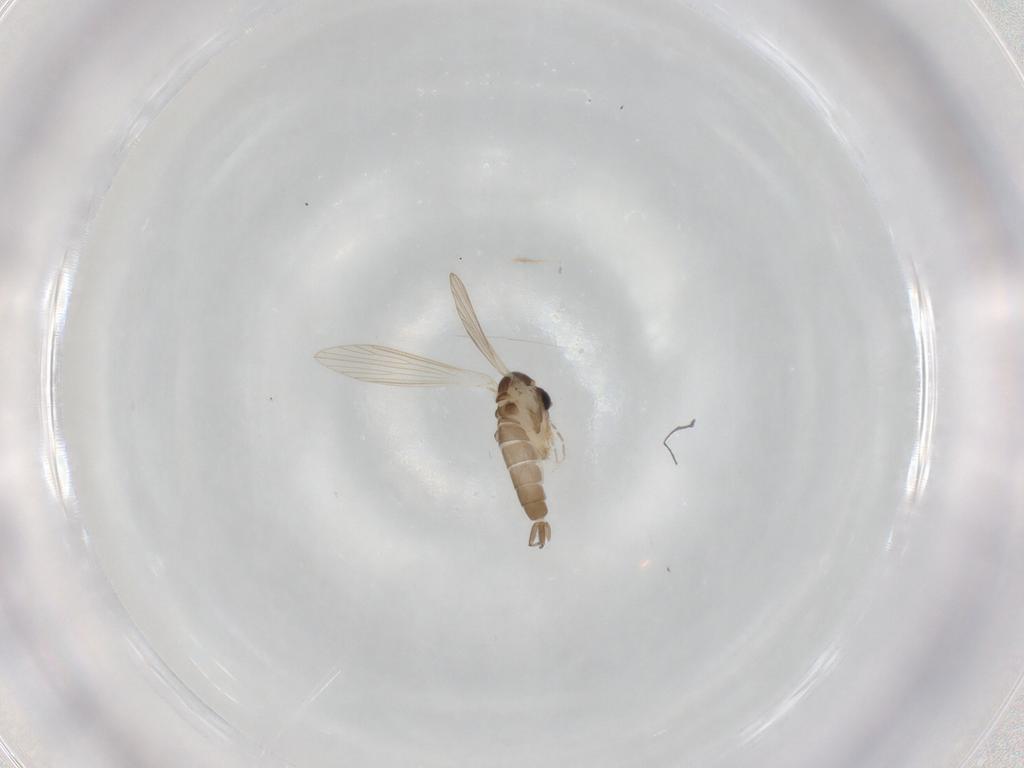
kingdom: Animalia
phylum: Arthropoda
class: Insecta
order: Diptera
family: Psychodidae
